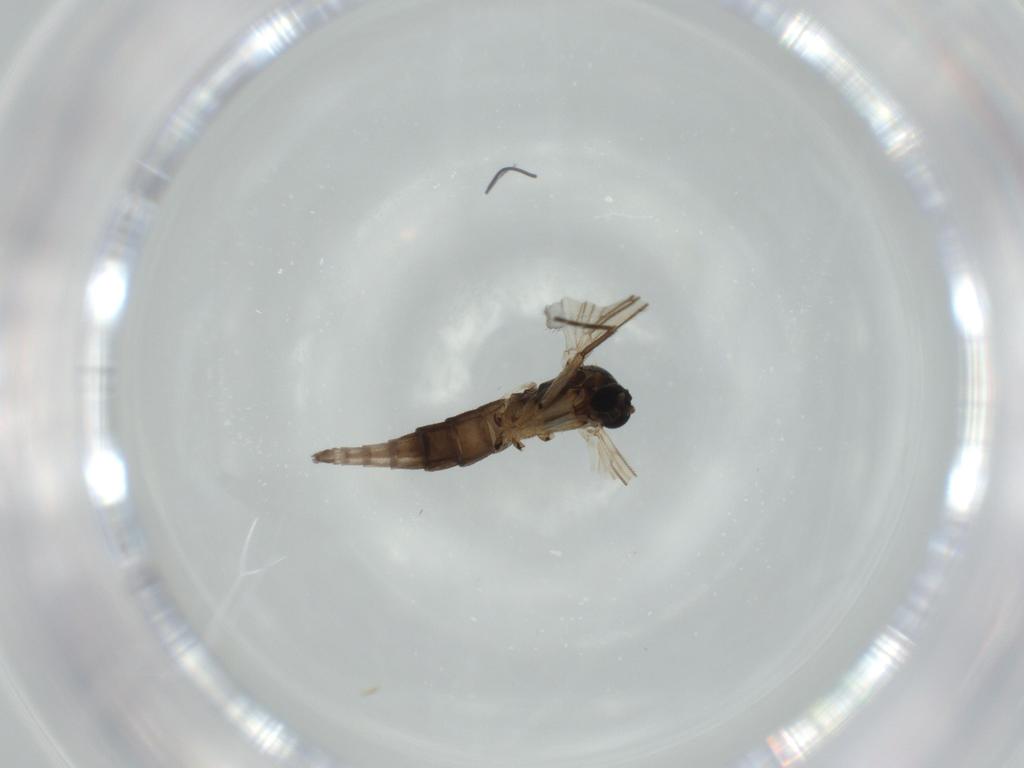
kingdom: Animalia
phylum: Arthropoda
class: Insecta
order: Diptera
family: Sciaridae
